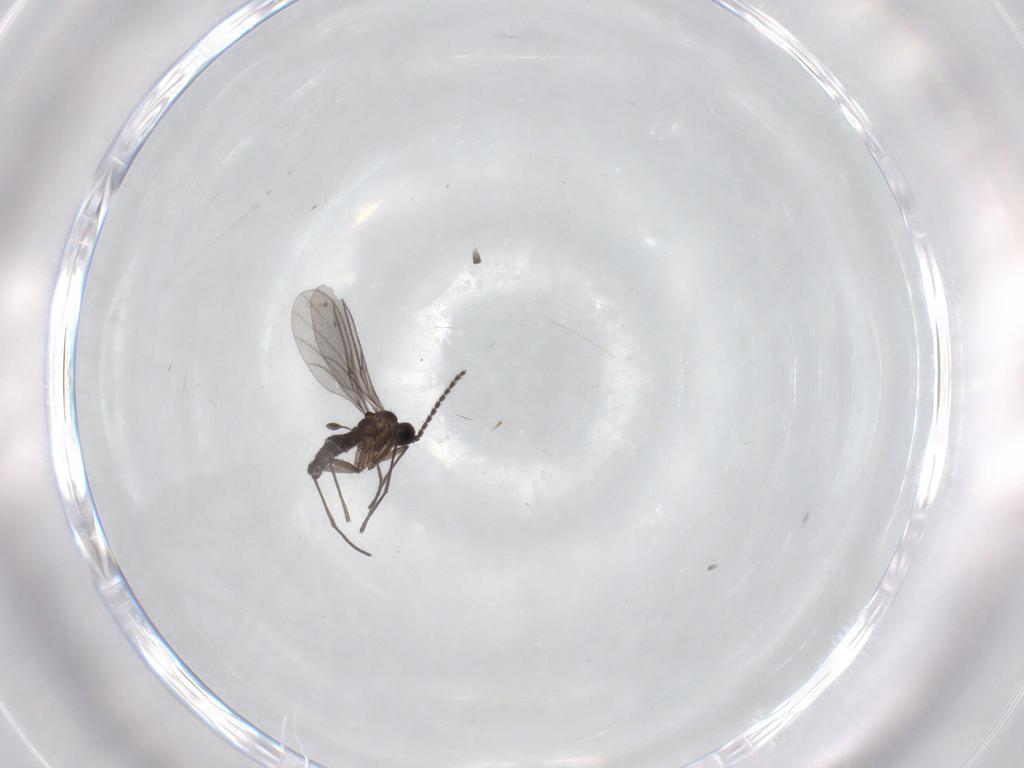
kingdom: Animalia
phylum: Arthropoda
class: Insecta
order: Diptera
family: Cecidomyiidae
